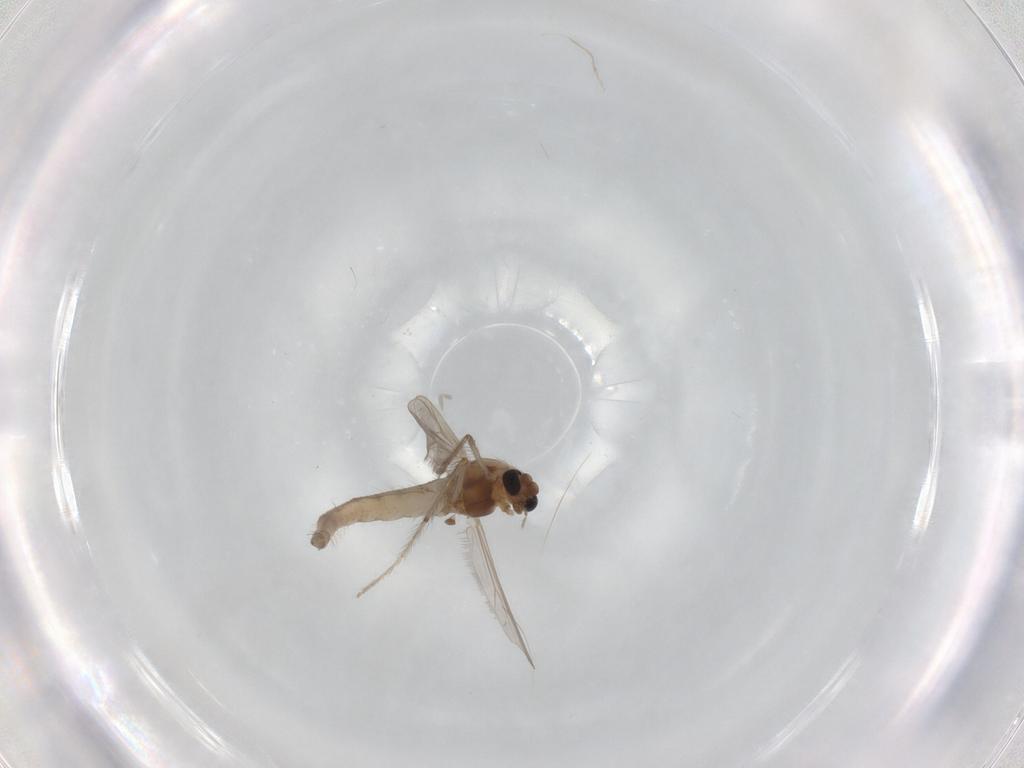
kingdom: Animalia
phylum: Arthropoda
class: Insecta
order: Diptera
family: Chironomidae
